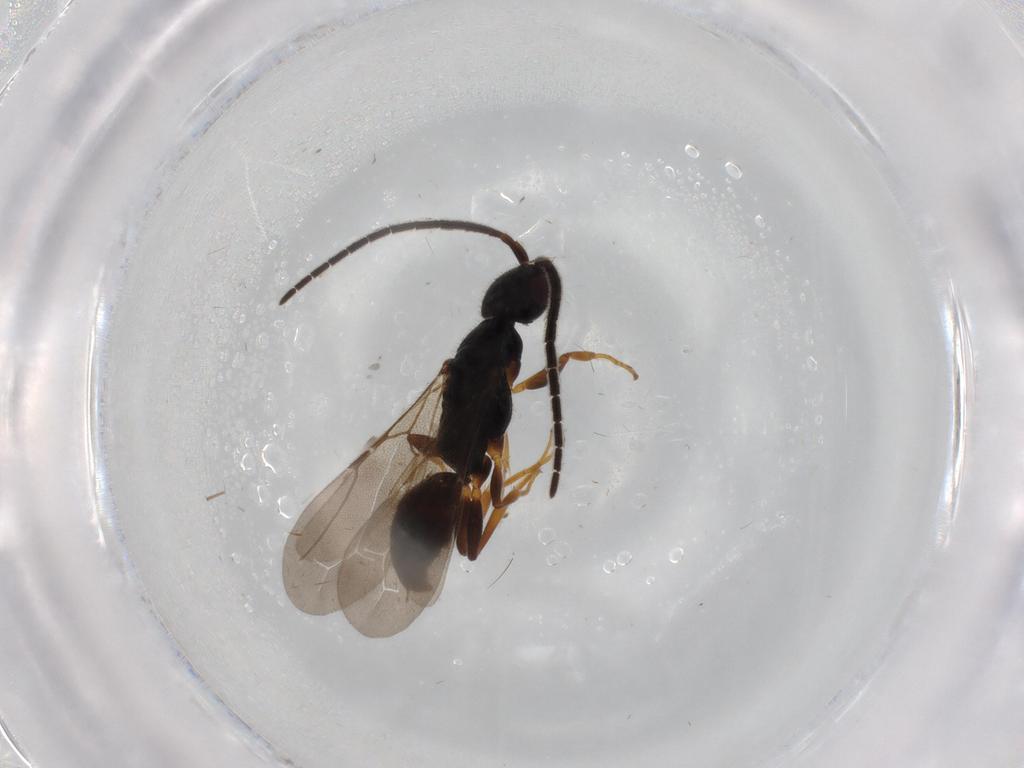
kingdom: Animalia
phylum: Arthropoda
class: Insecta
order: Hymenoptera
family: Bethylidae
